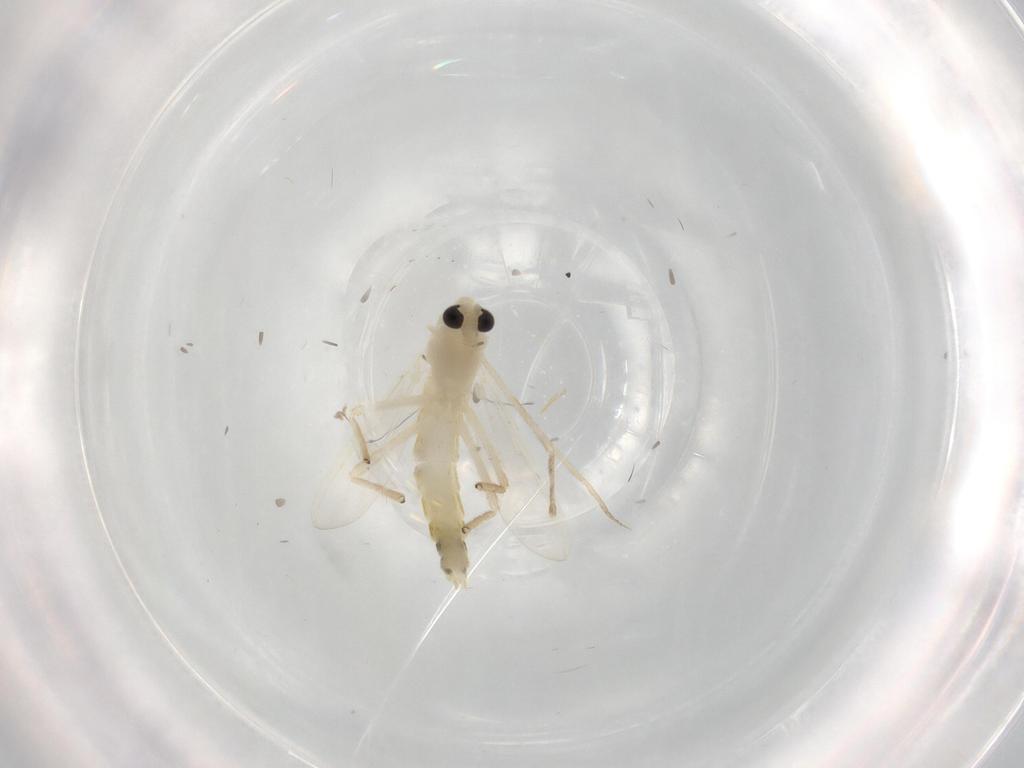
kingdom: Animalia
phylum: Arthropoda
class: Insecta
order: Diptera
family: Chironomidae
